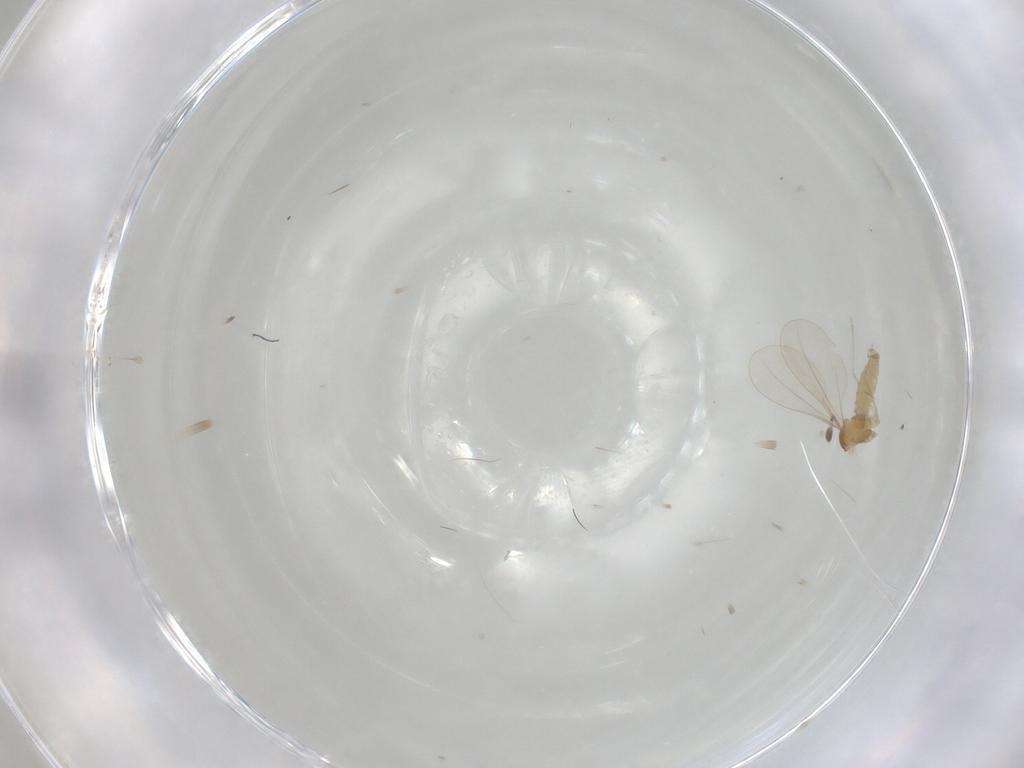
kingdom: Animalia
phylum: Arthropoda
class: Insecta
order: Diptera
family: Cecidomyiidae
